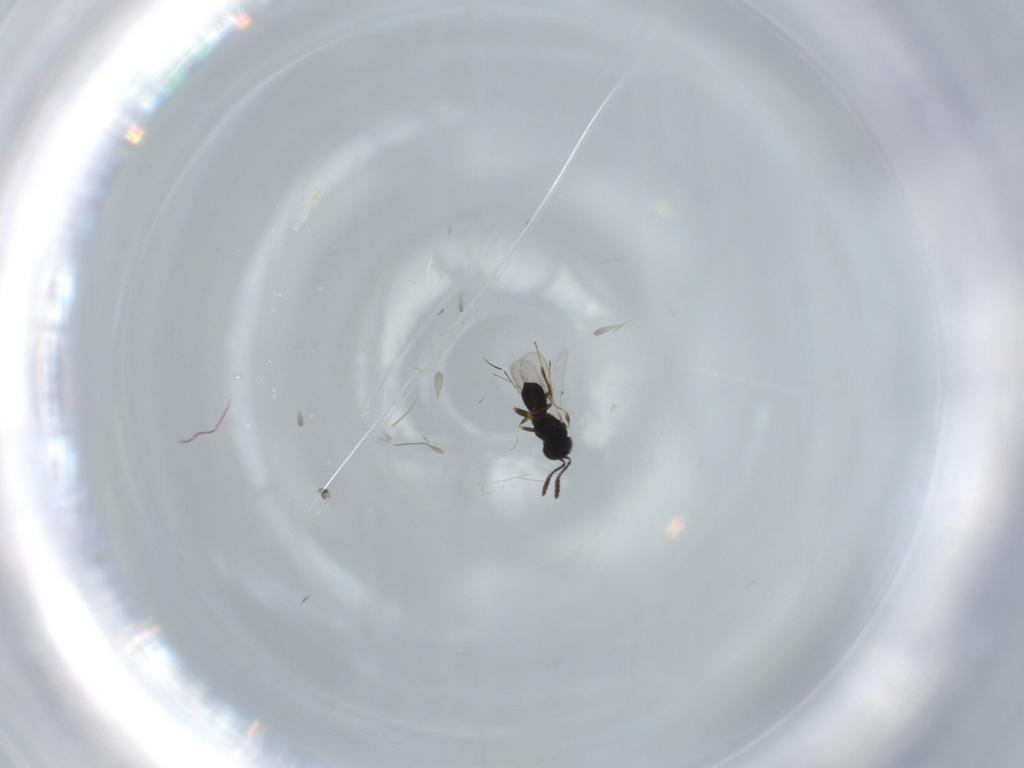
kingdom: Animalia
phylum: Arthropoda
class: Insecta
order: Hymenoptera
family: Scelionidae
